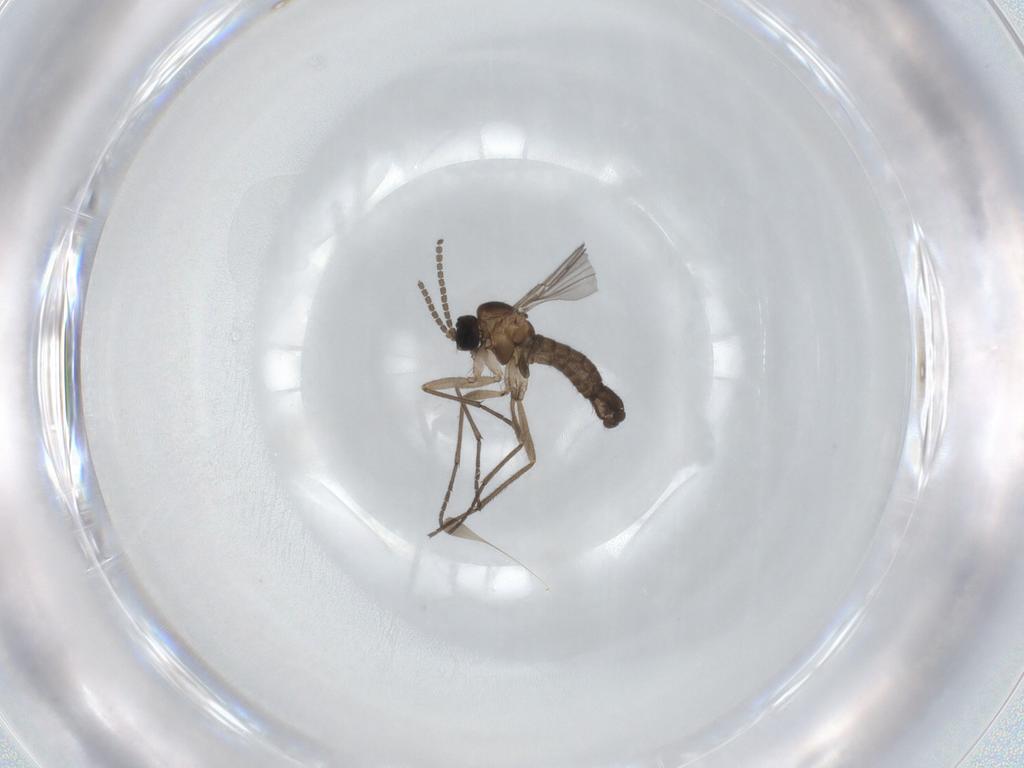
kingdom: Animalia
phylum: Arthropoda
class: Insecta
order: Diptera
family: Sciaridae
